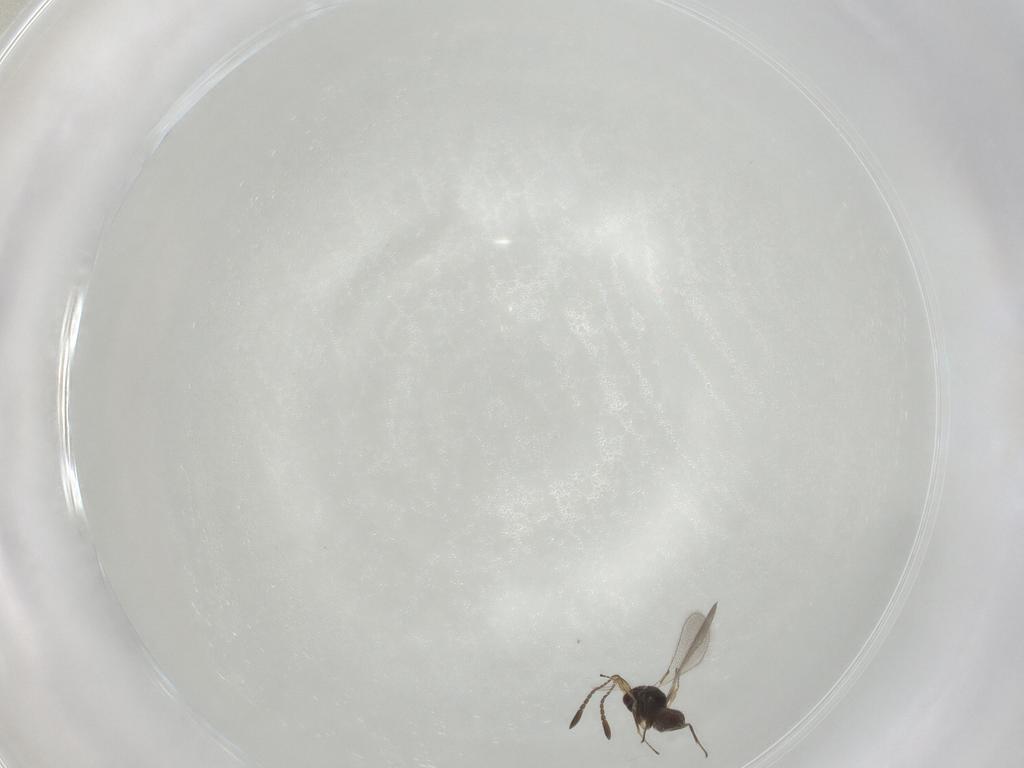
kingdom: Animalia
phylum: Arthropoda
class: Insecta
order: Hymenoptera
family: Mymaridae
